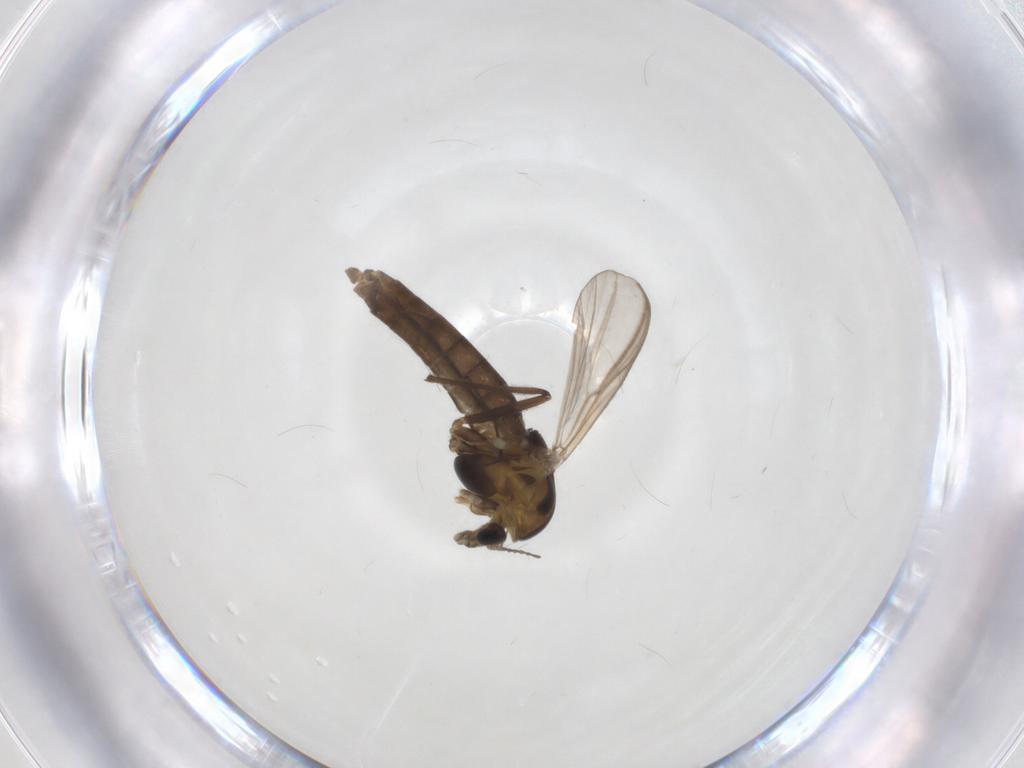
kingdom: Animalia
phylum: Arthropoda
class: Insecta
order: Diptera
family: Chironomidae
